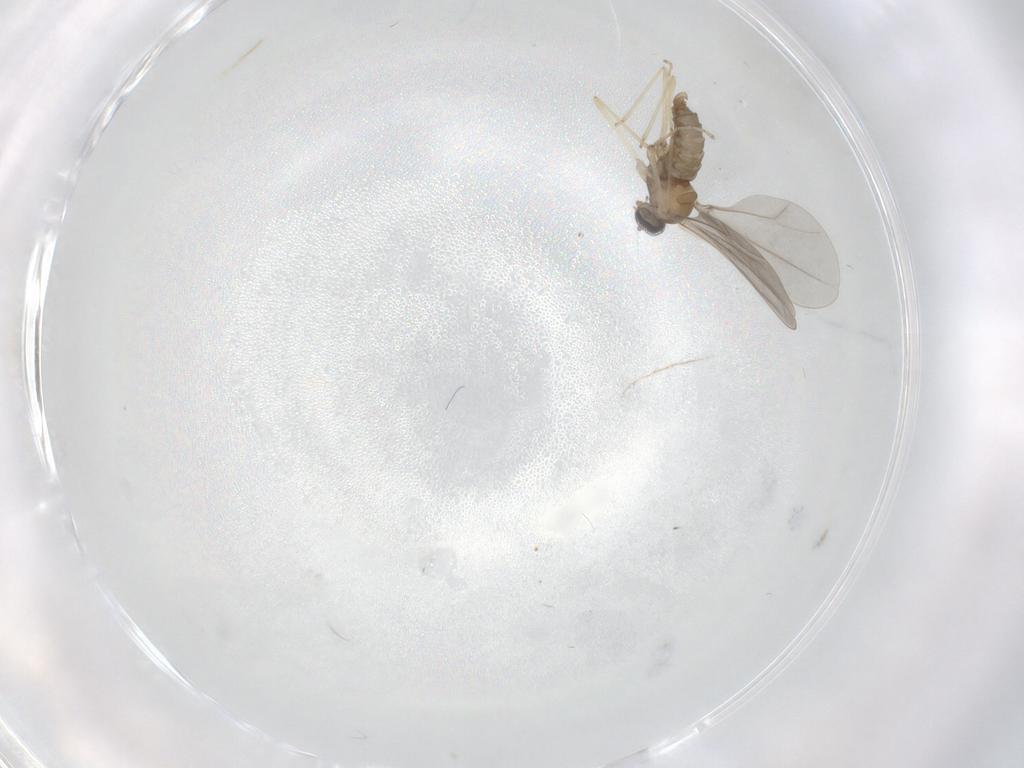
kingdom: Animalia
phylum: Arthropoda
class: Insecta
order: Diptera
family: Cecidomyiidae
